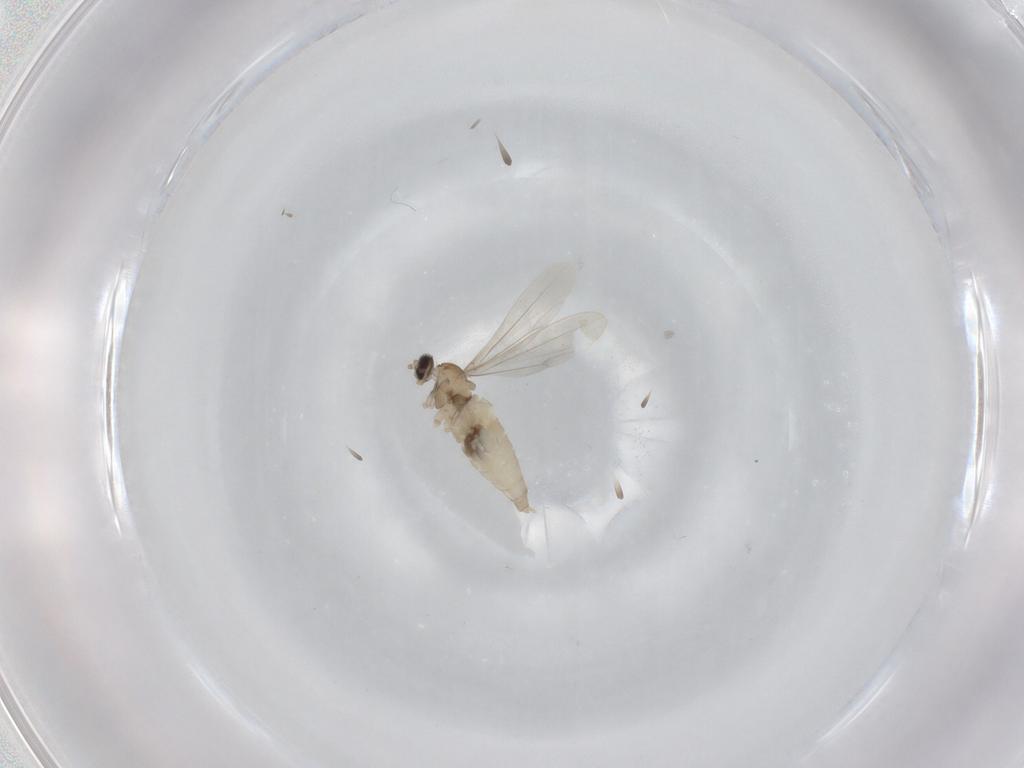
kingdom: Animalia
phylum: Arthropoda
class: Insecta
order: Diptera
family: Cecidomyiidae
